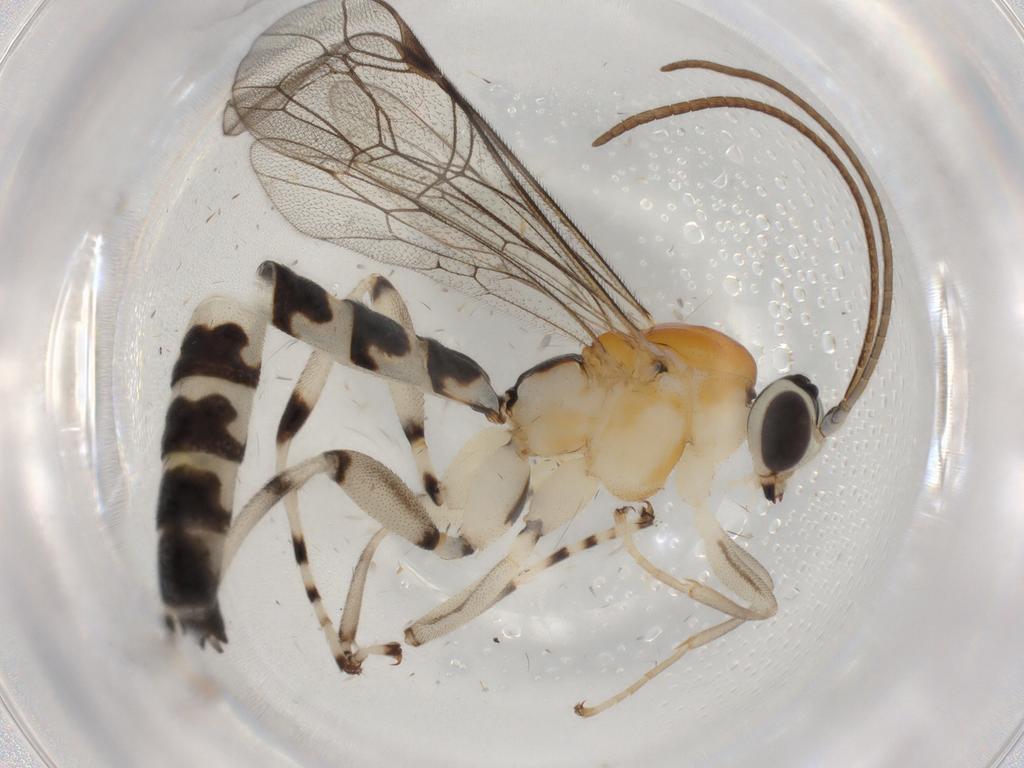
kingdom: Animalia
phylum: Arthropoda
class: Insecta
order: Hymenoptera
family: Ichneumonidae
